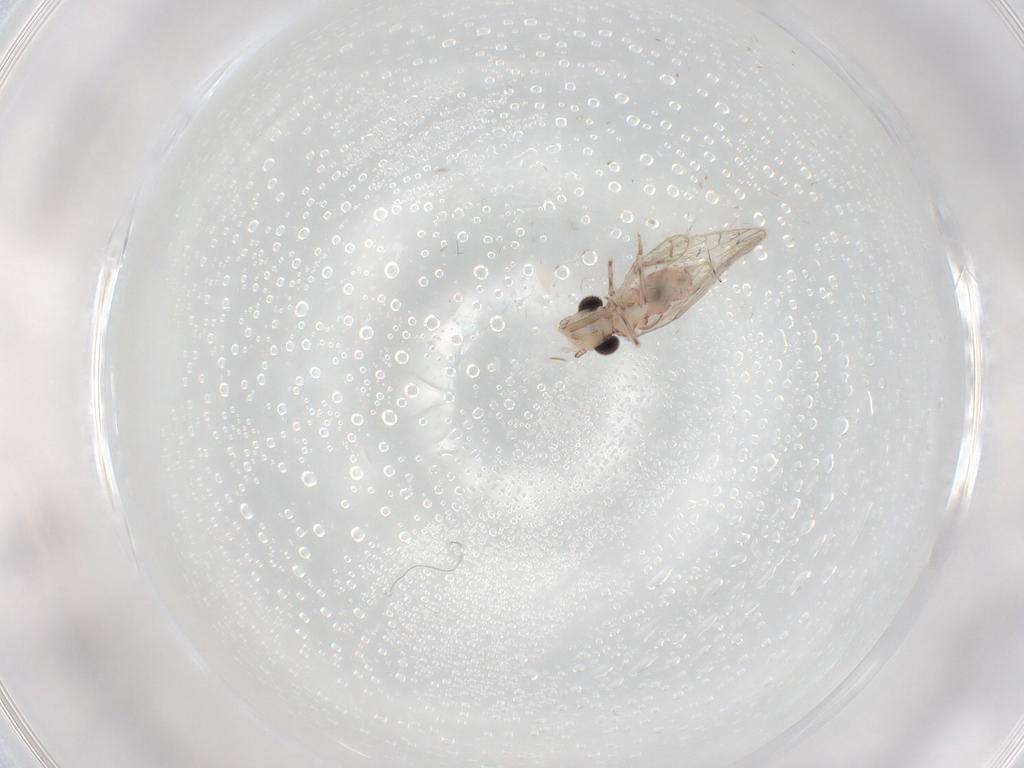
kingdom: Animalia
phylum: Arthropoda
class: Insecta
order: Psocodea
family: Caeciliusidae
